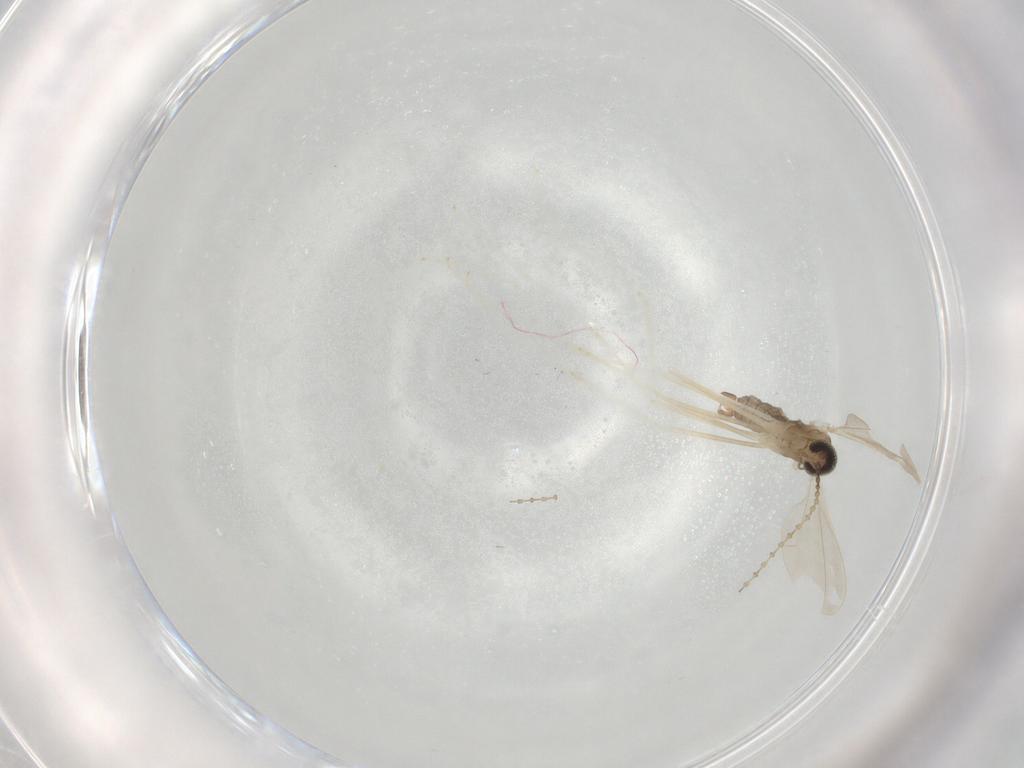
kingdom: Animalia
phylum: Arthropoda
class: Insecta
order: Diptera
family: Cecidomyiidae
